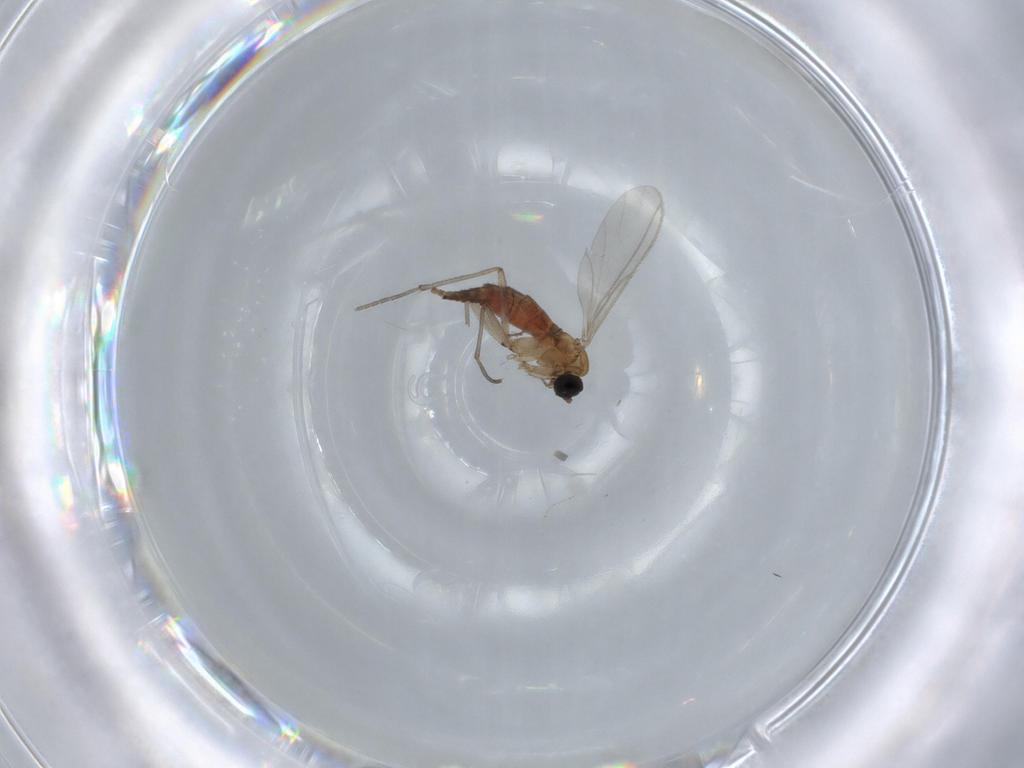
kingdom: Animalia
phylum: Arthropoda
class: Insecta
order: Diptera
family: Sciaridae
